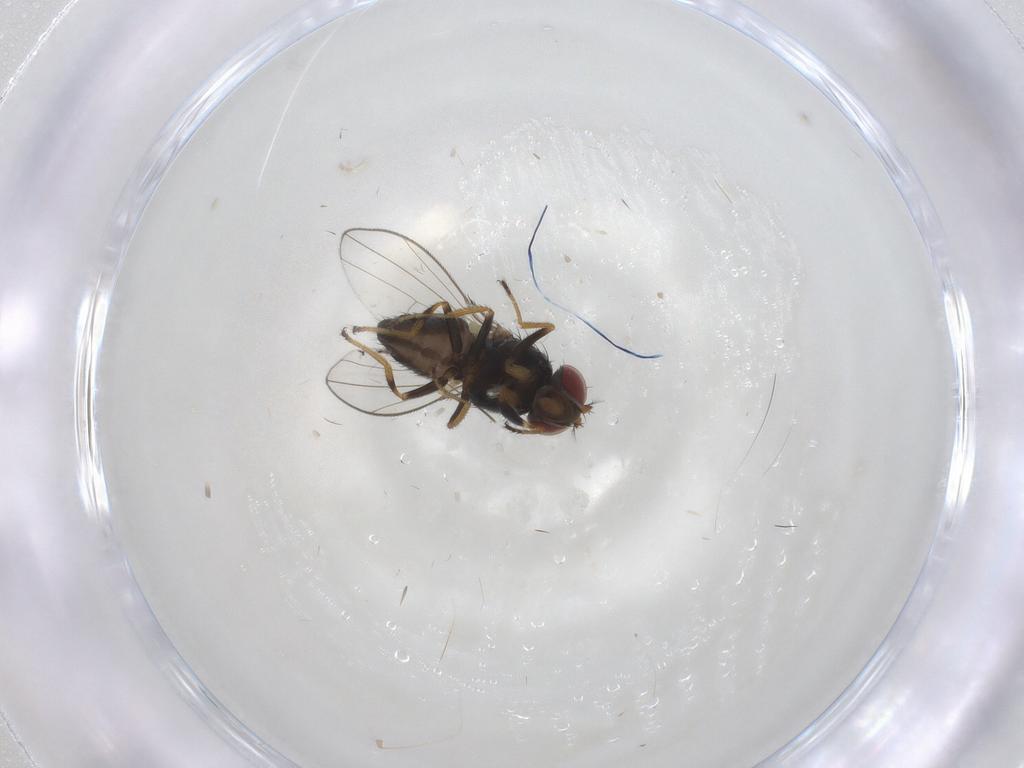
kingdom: Animalia
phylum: Arthropoda
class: Insecta
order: Diptera
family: Ephydridae
